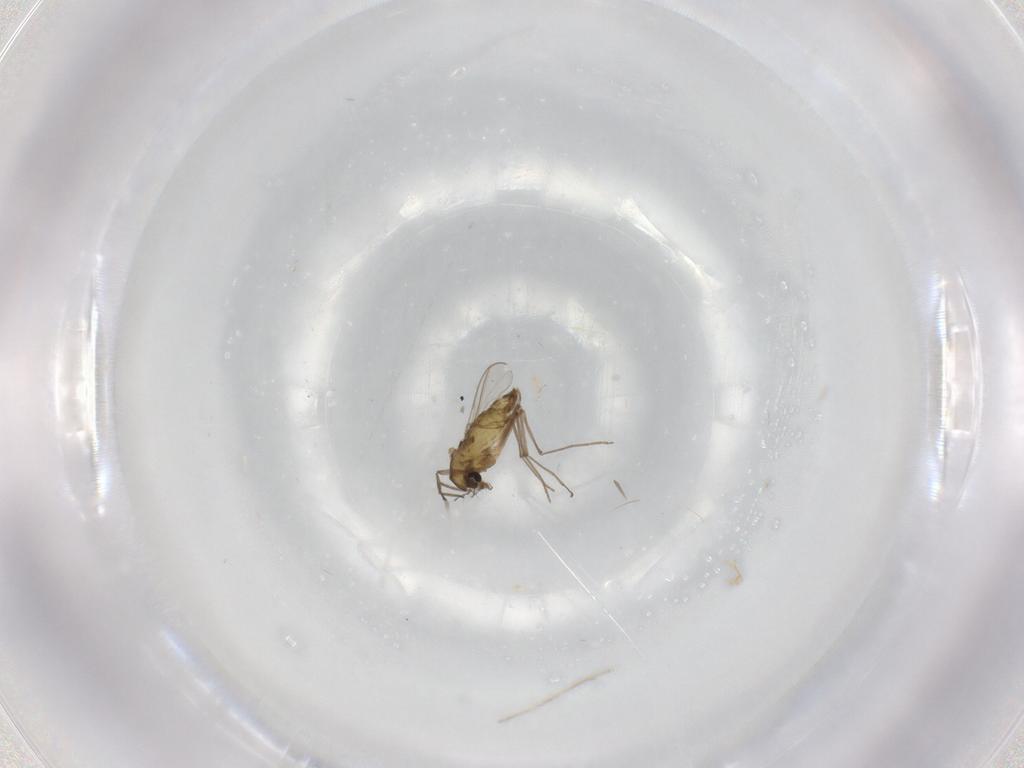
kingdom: Animalia
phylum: Arthropoda
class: Insecta
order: Diptera
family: Chironomidae
